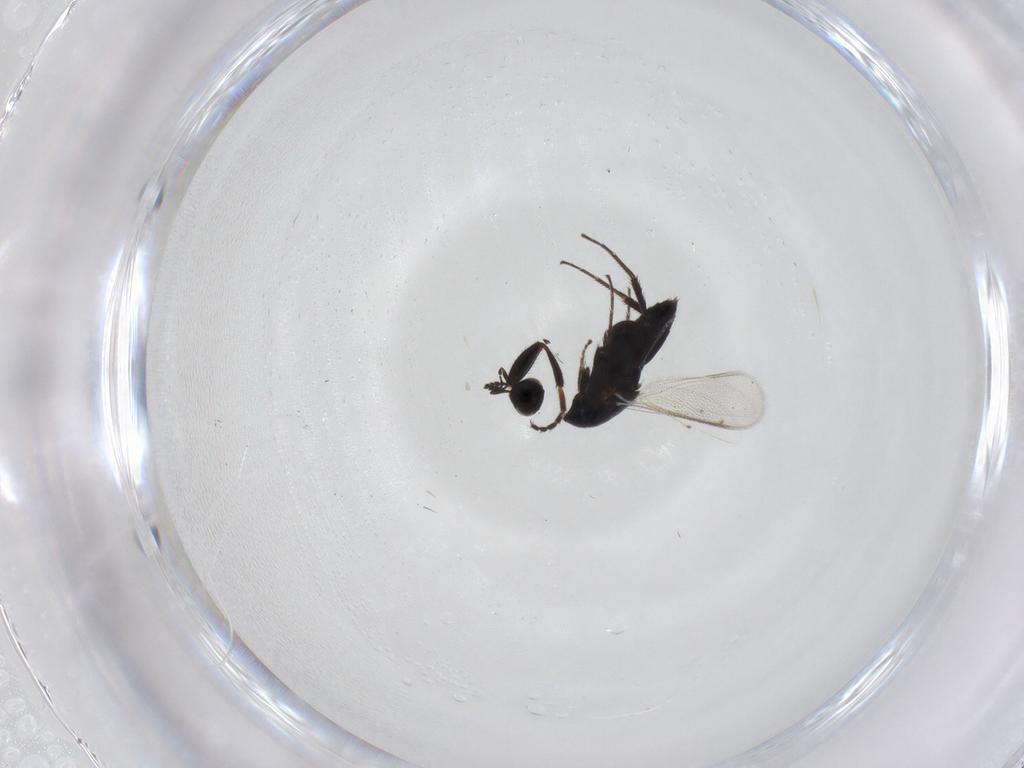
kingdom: Animalia
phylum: Arthropoda
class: Insecta
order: Hymenoptera
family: Platygastridae
